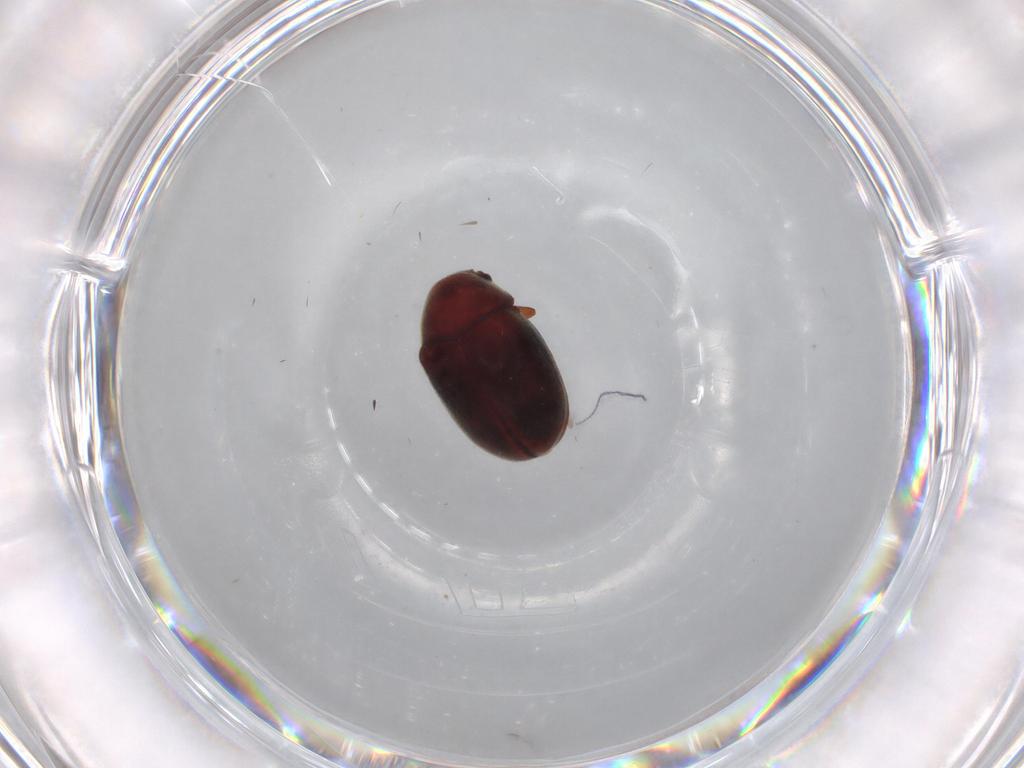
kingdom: Animalia
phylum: Arthropoda
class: Insecta
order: Coleoptera
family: Ptinidae
